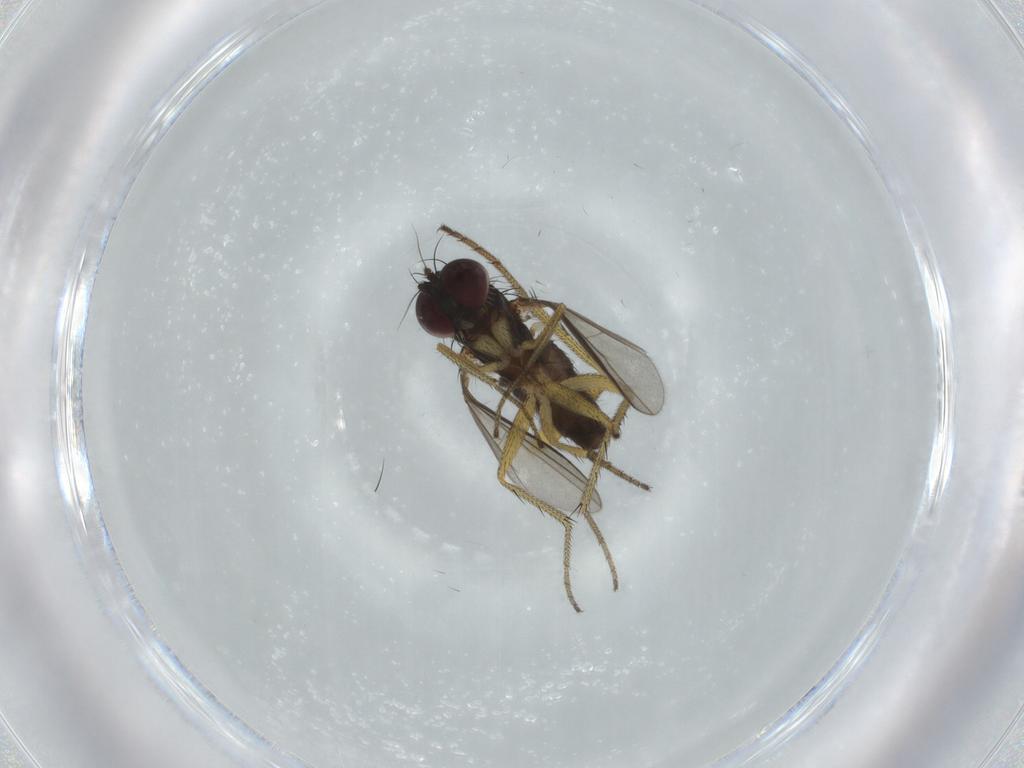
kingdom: Animalia
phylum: Arthropoda
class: Insecta
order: Diptera
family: Dolichopodidae
